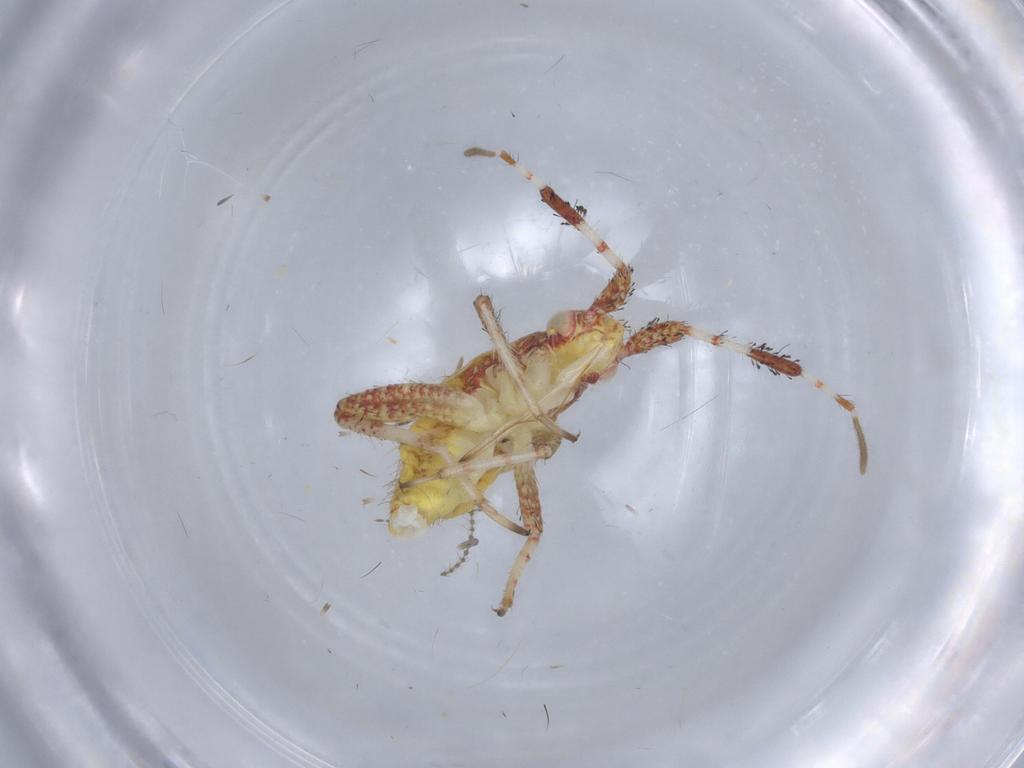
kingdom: Animalia
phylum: Arthropoda
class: Insecta
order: Hemiptera
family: Miridae
